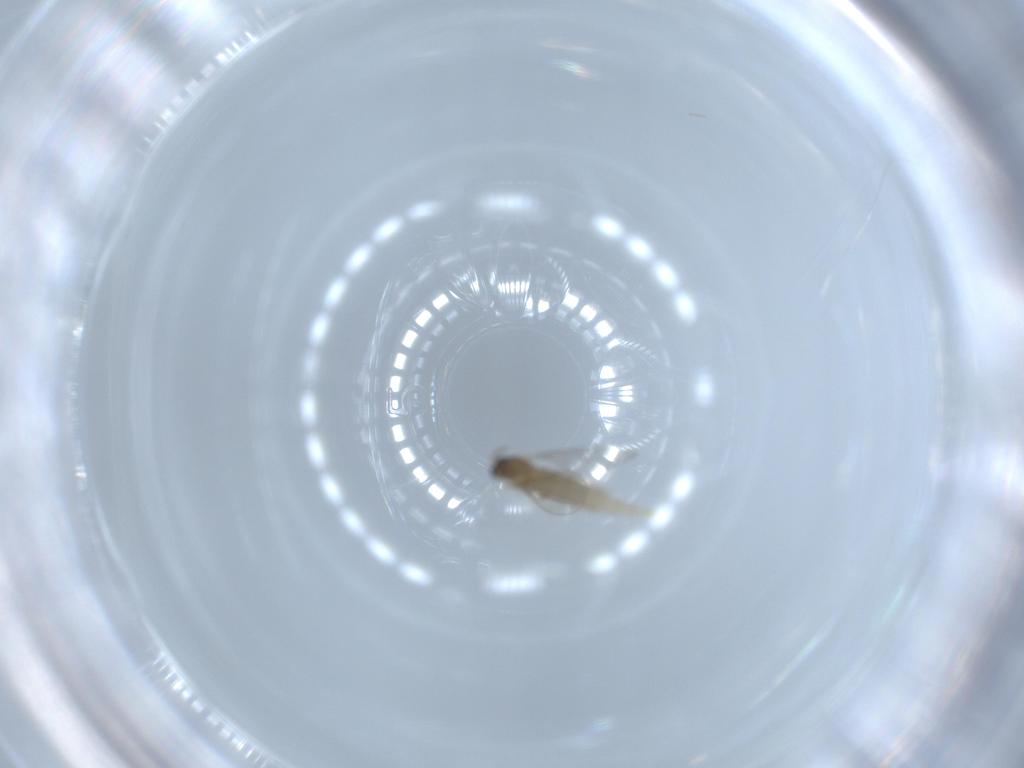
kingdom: Animalia
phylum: Arthropoda
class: Insecta
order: Diptera
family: Cecidomyiidae
